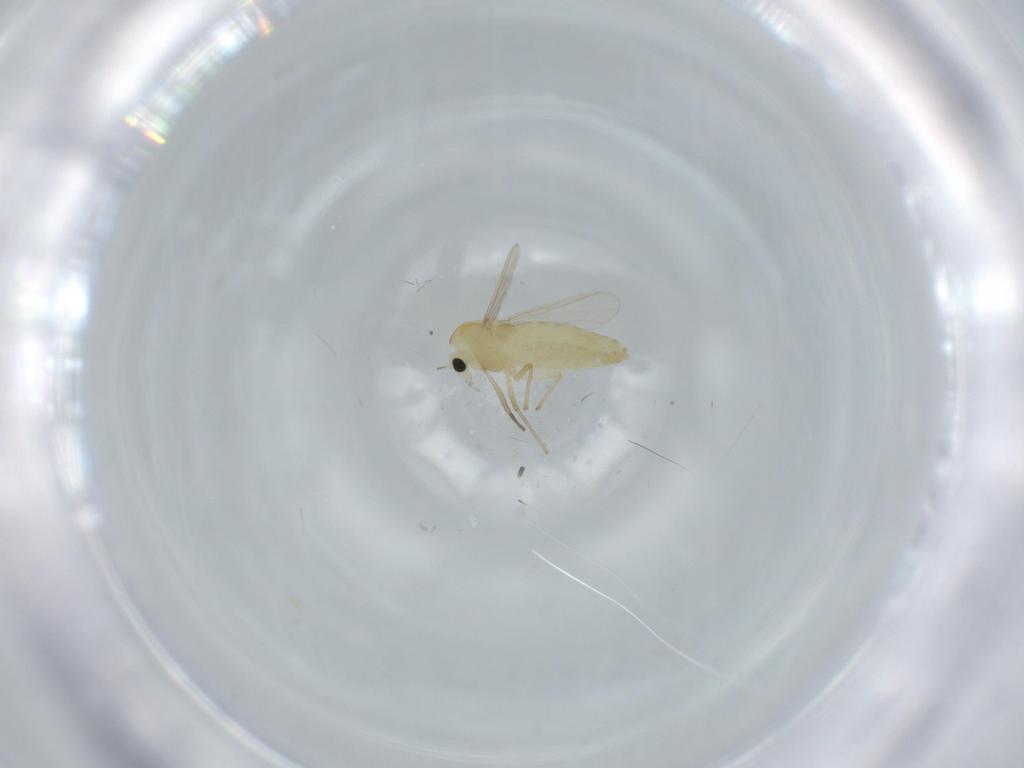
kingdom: Animalia
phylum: Arthropoda
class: Insecta
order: Diptera
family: Chironomidae
